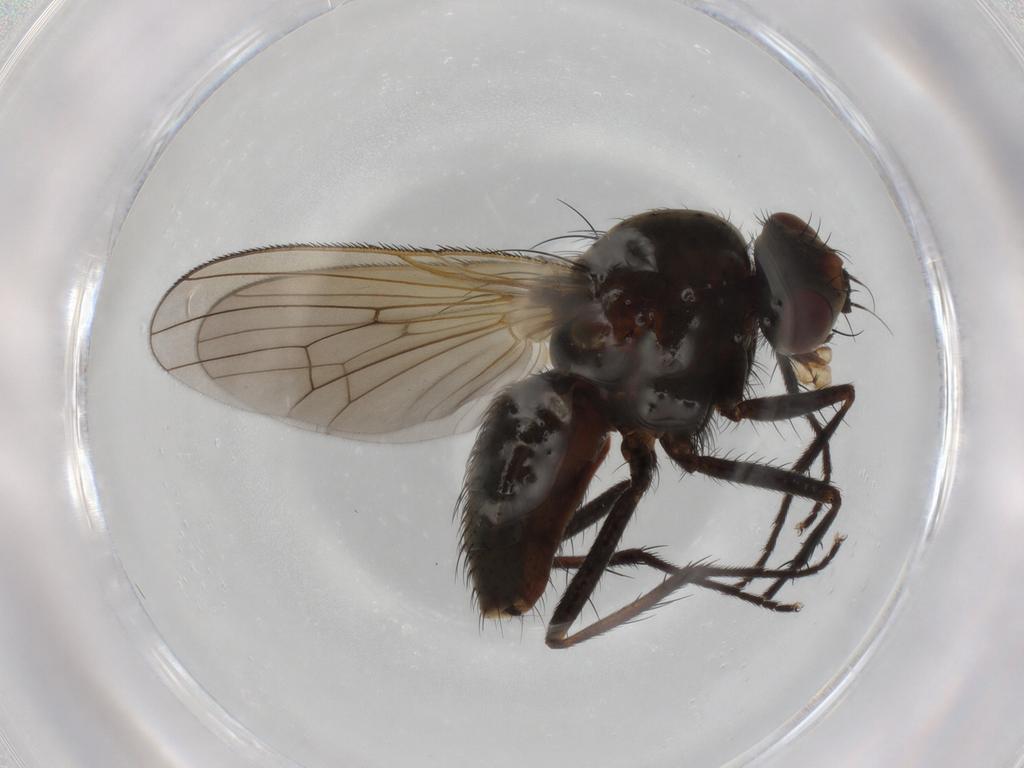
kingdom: Animalia
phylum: Arthropoda
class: Insecta
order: Diptera
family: Anthomyiidae
